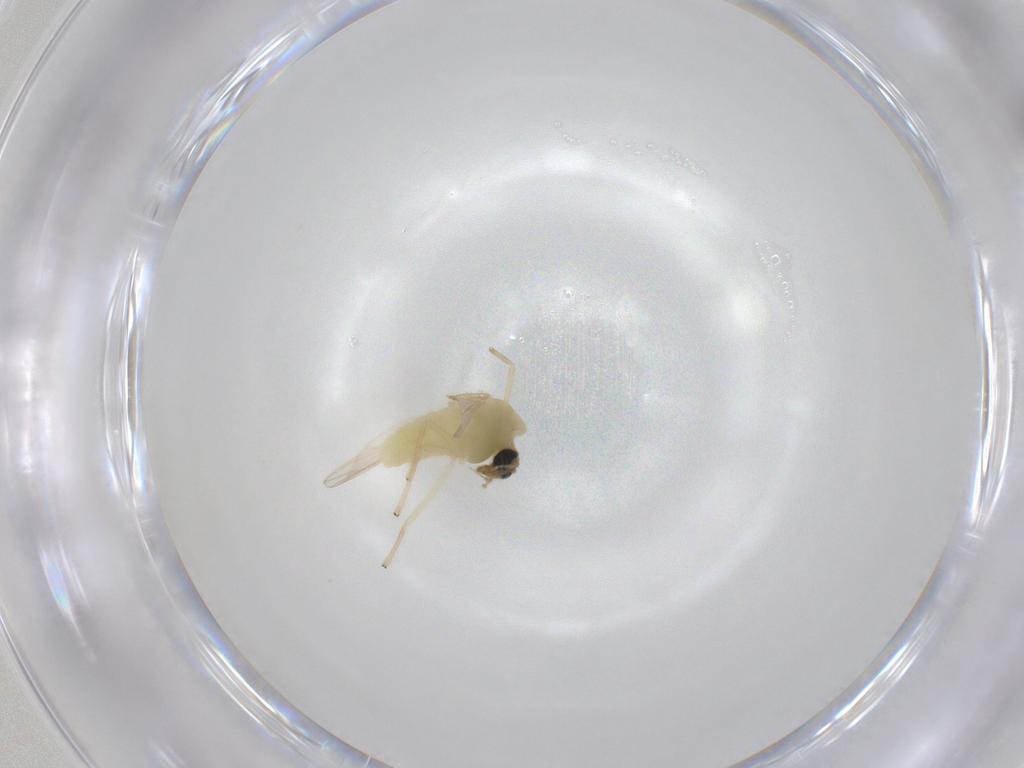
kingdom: Animalia
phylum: Arthropoda
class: Insecta
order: Diptera
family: Chironomidae
